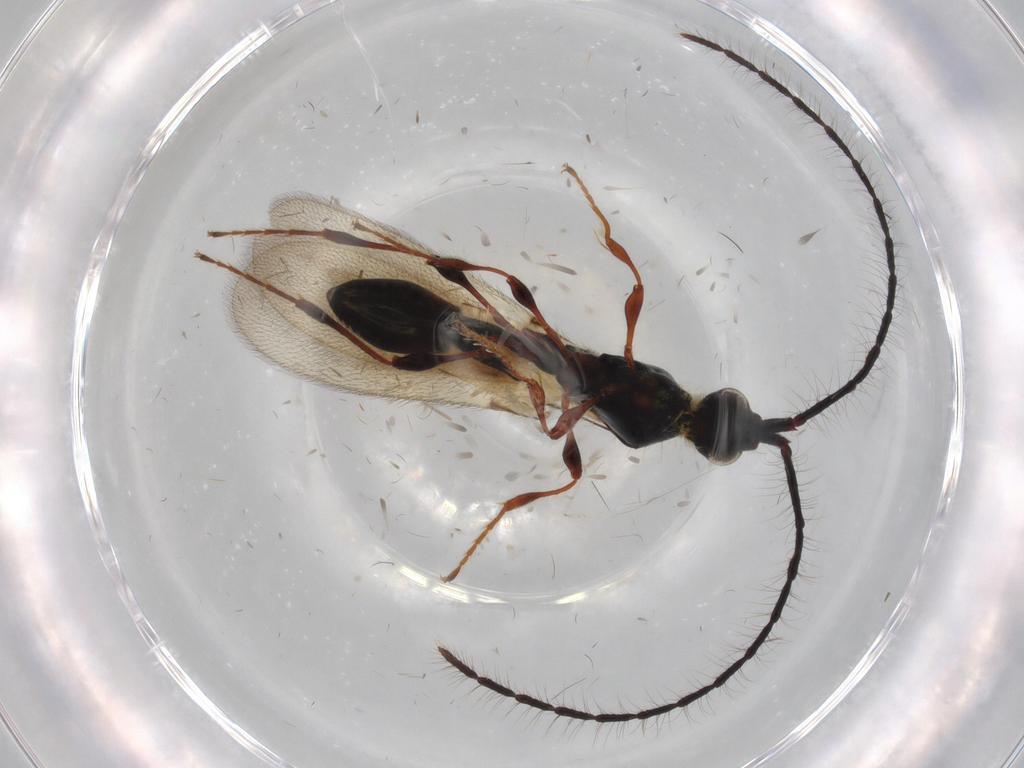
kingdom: Animalia
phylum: Arthropoda
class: Insecta
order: Hymenoptera
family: Diapriidae
